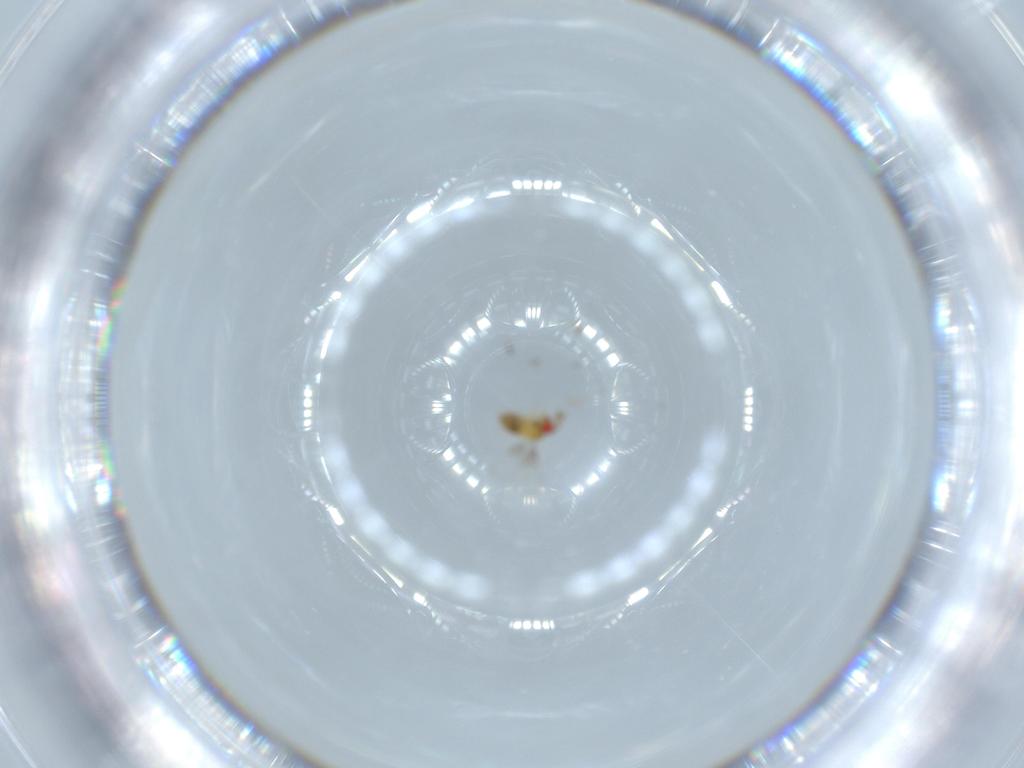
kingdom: Animalia
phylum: Arthropoda
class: Insecta
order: Hymenoptera
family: Trichogrammatidae
